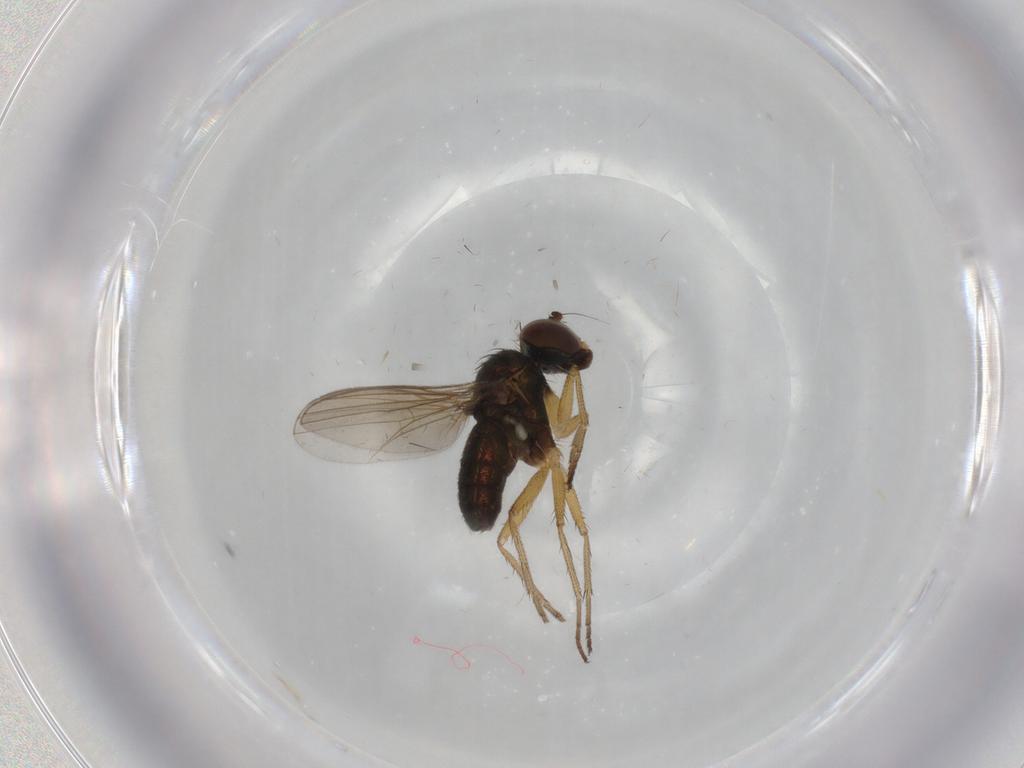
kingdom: Animalia
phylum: Arthropoda
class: Insecta
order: Diptera
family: Dolichopodidae
